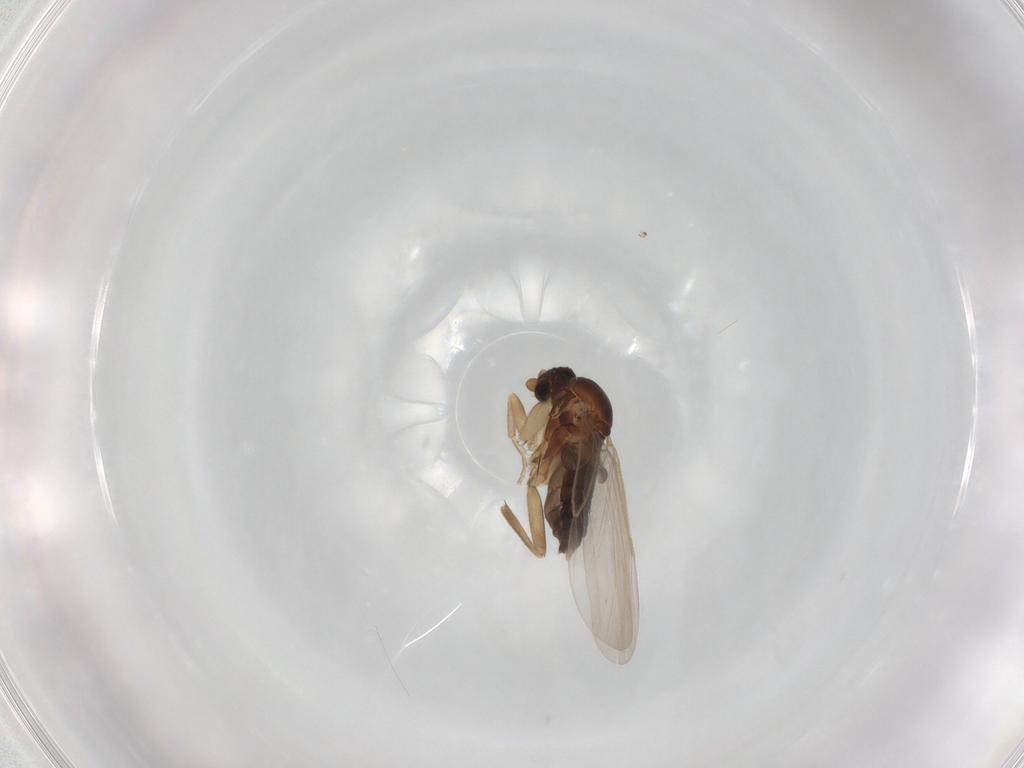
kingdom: Animalia
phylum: Arthropoda
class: Insecta
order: Diptera
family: Phoridae
